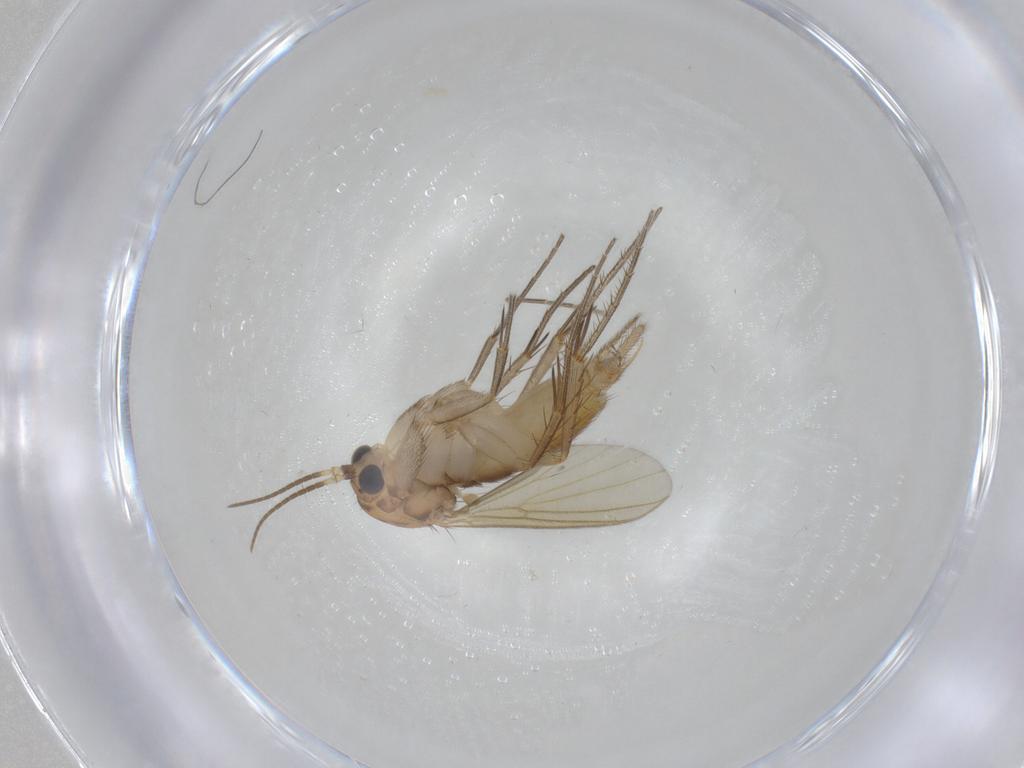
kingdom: Animalia
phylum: Arthropoda
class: Insecta
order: Diptera
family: Mycetophilidae
